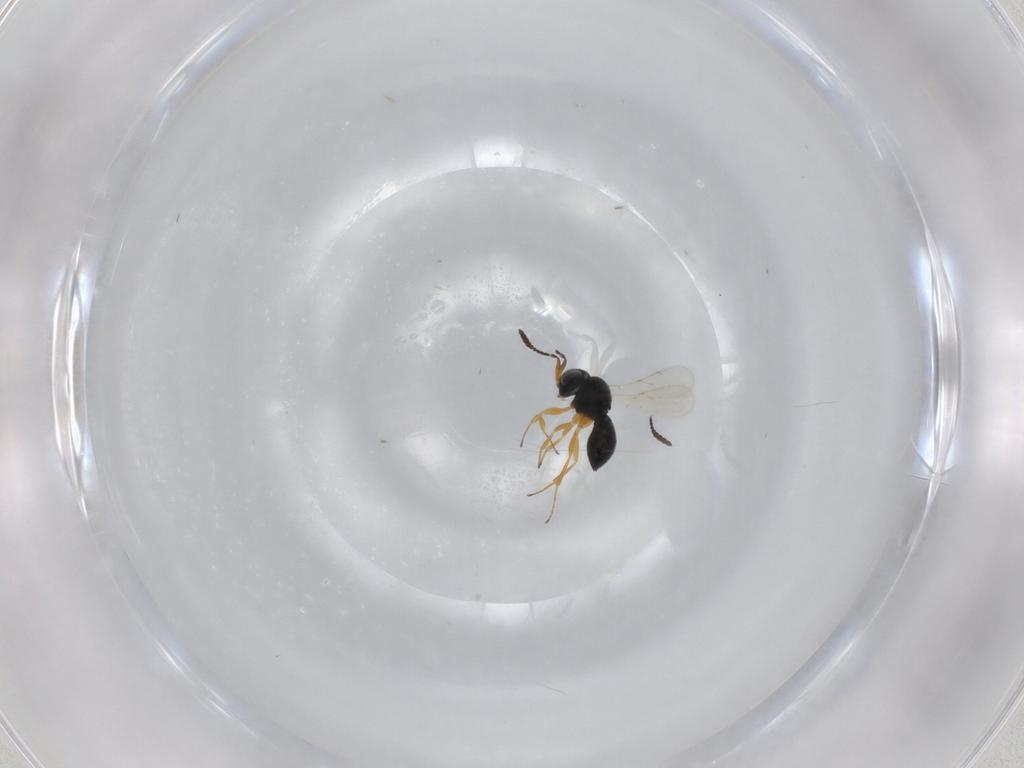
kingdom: Animalia
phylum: Arthropoda
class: Insecta
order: Hymenoptera
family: Scelionidae
